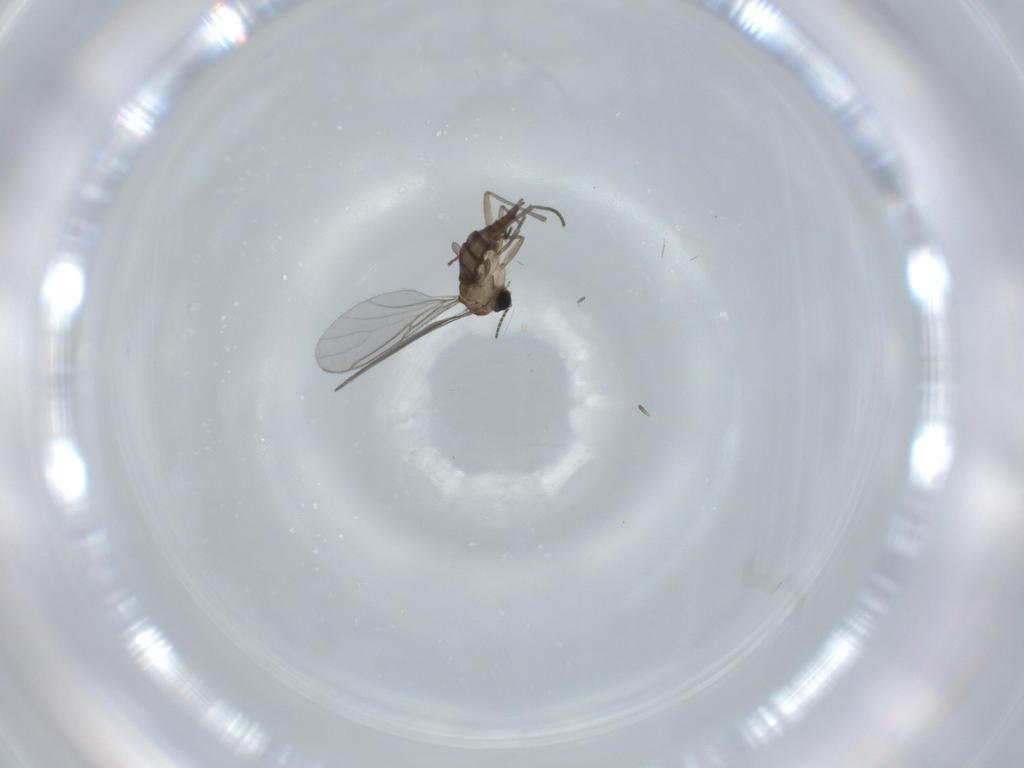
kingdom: Animalia
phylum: Arthropoda
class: Insecta
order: Diptera
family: Sciaridae
